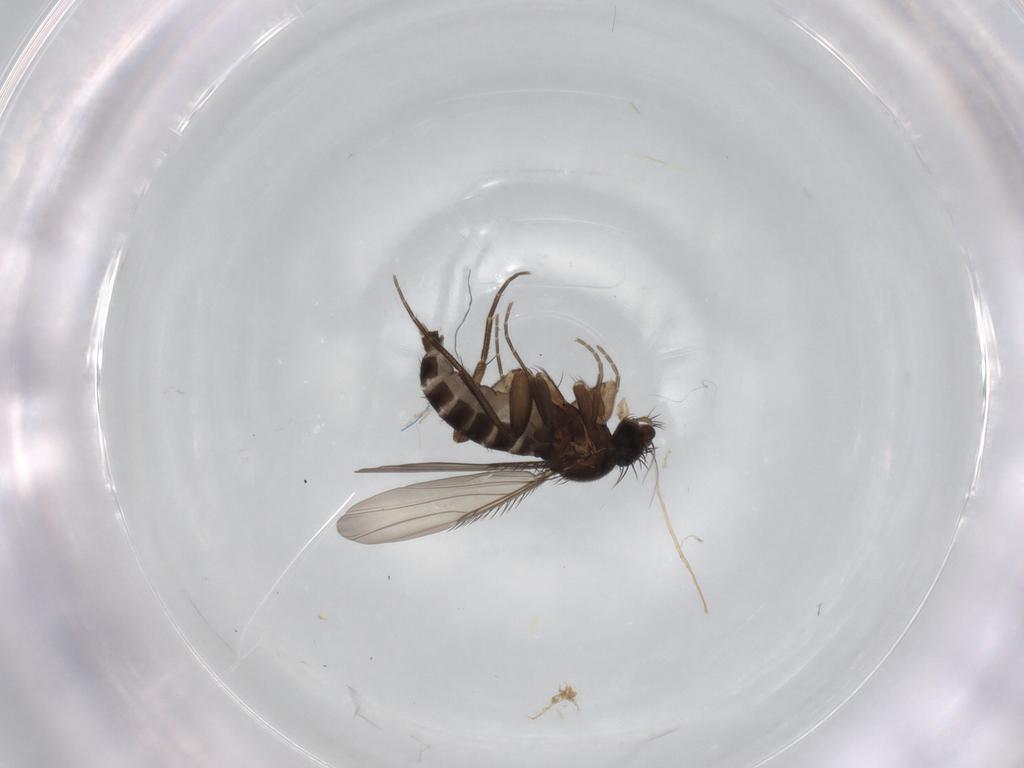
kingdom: Animalia
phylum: Arthropoda
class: Insecta
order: Diptera
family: Phoridae
